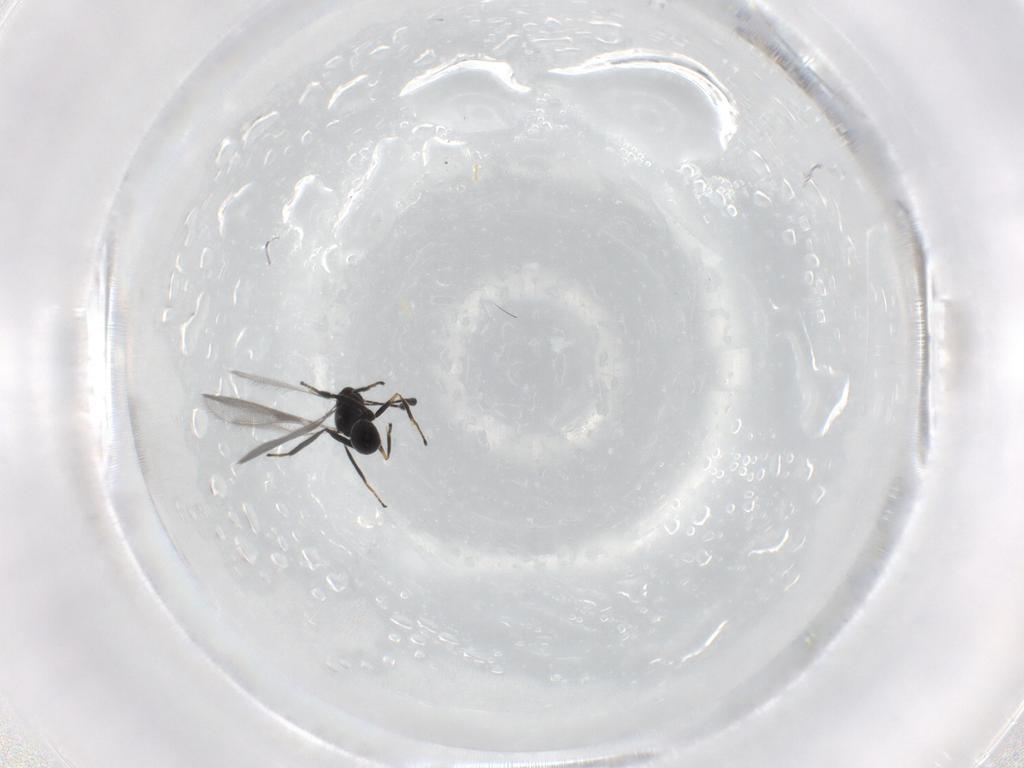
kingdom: Animalia
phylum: Arthropoda
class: Insecta
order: Hymenoptera
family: Mymaridae
